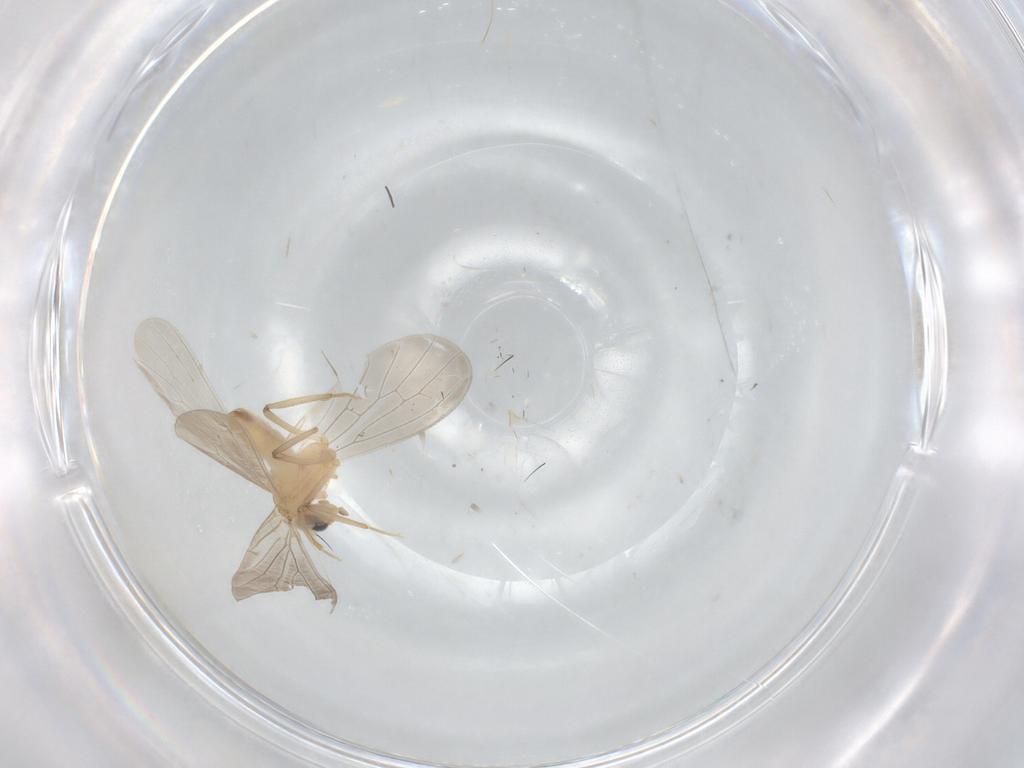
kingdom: Animalia
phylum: Arthropoda
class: Insecta
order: Neuroptera
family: Coniopterygidae
